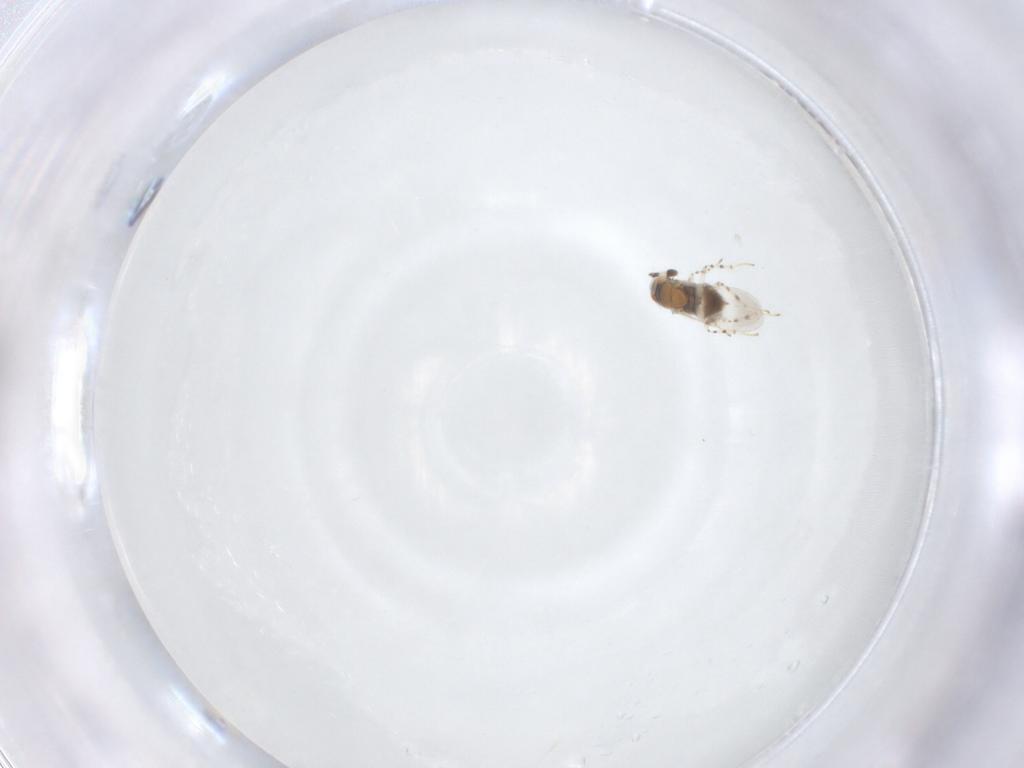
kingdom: Animalia
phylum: Arthropoda
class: Insecta
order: Hymenoptera
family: Encyrtidae
